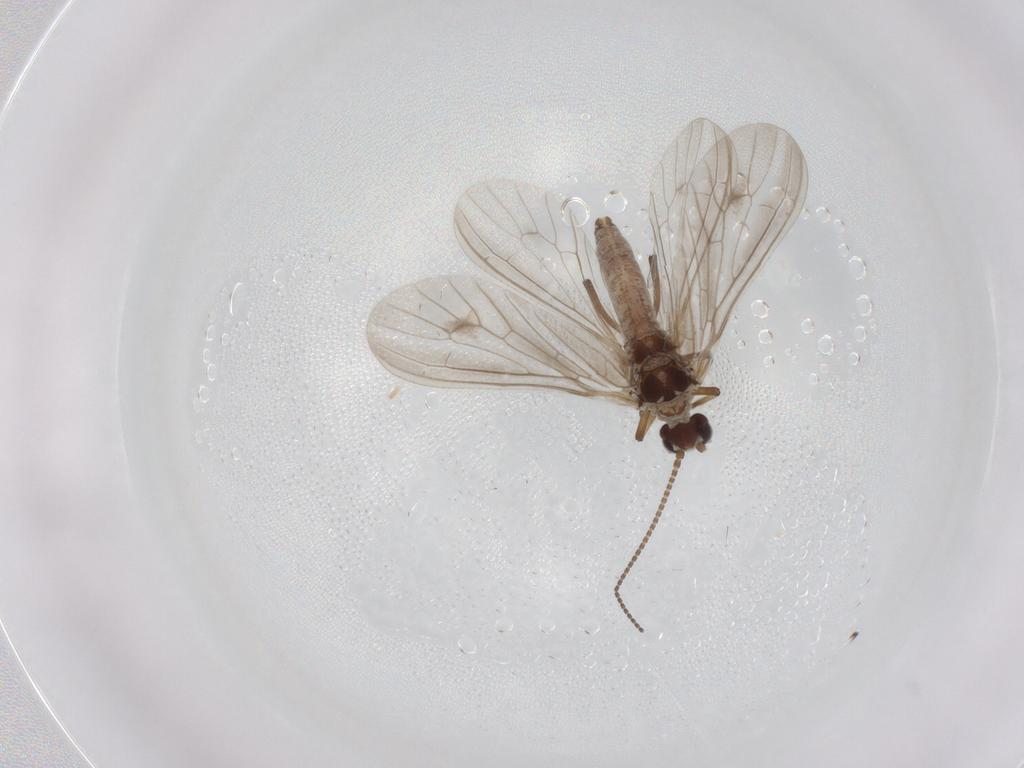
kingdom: Animalia
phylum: Arthropoda
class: Insecta
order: Neuroptera
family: Coniopterygidae
